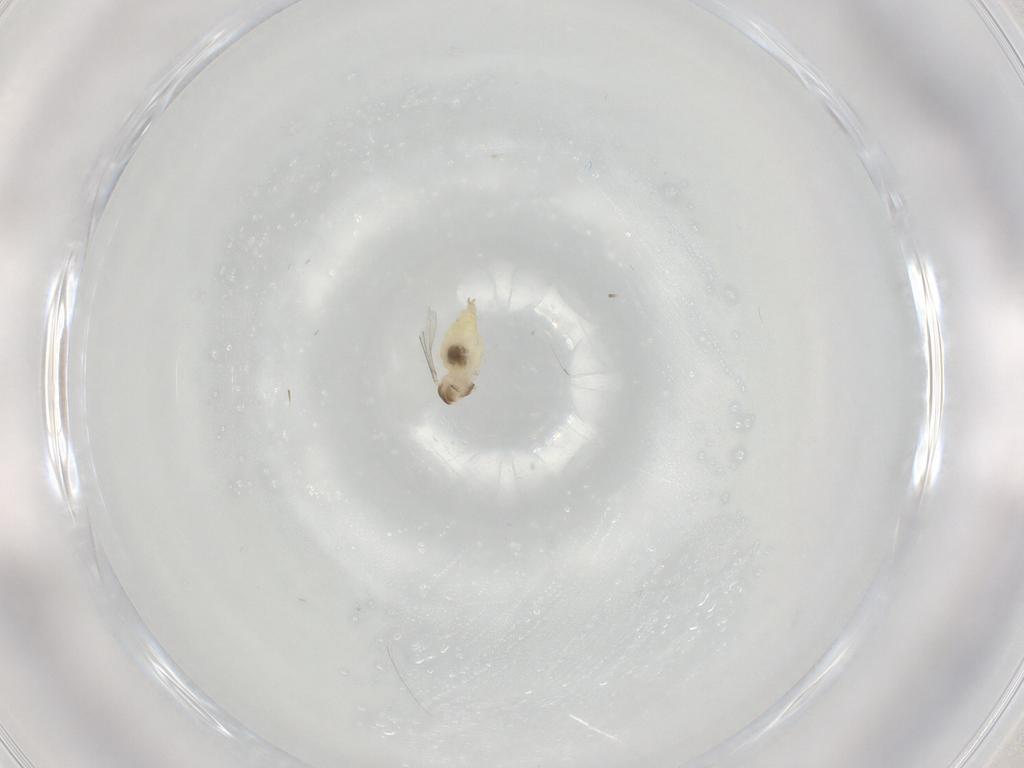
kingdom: Animalia
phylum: Arthropoda
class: Insecta
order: Diptera
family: Cecidomyiidae
